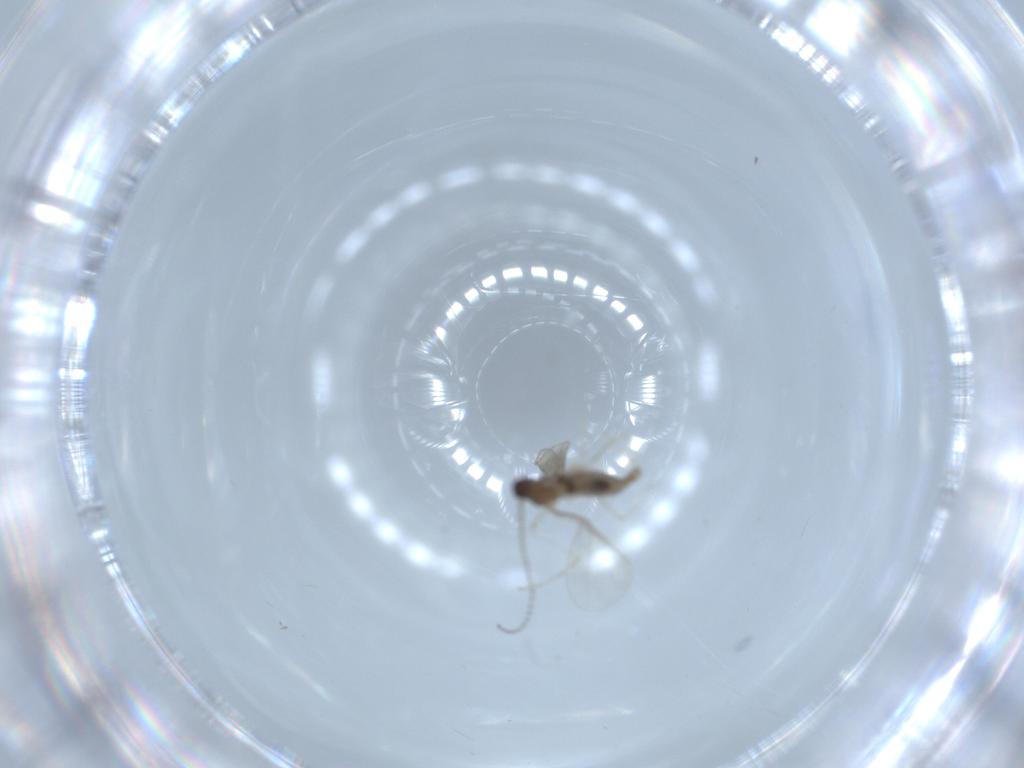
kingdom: Animalia
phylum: Arthropoda
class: Insecta
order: Diptera
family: Cecidomyiidae
